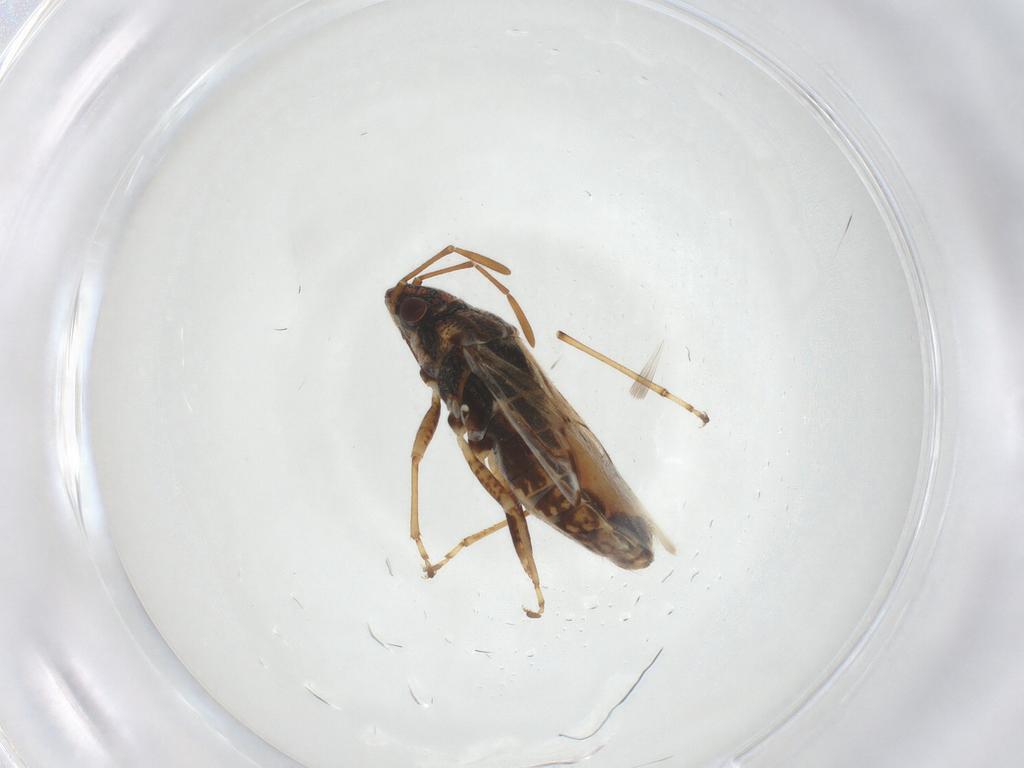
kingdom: Animalia
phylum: Arthropoda
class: Insecta
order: Hemiptera
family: Lygaeidae
